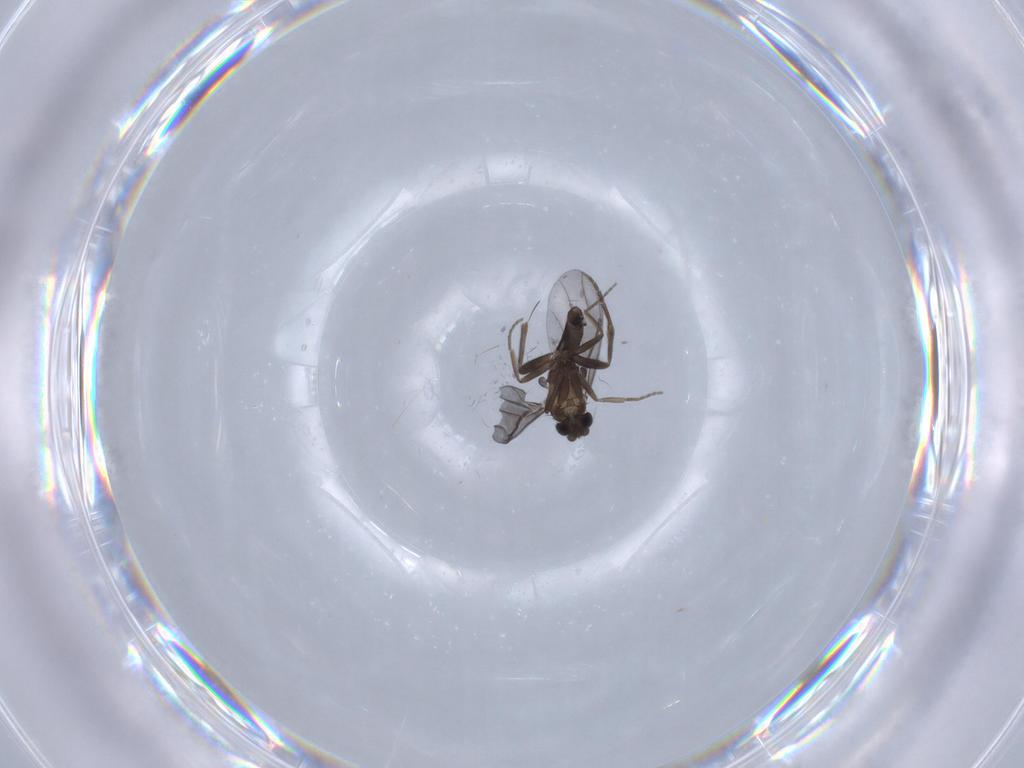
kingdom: Animalia
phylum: Arthropoda
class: Insecta
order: Diptera
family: Phoridae
